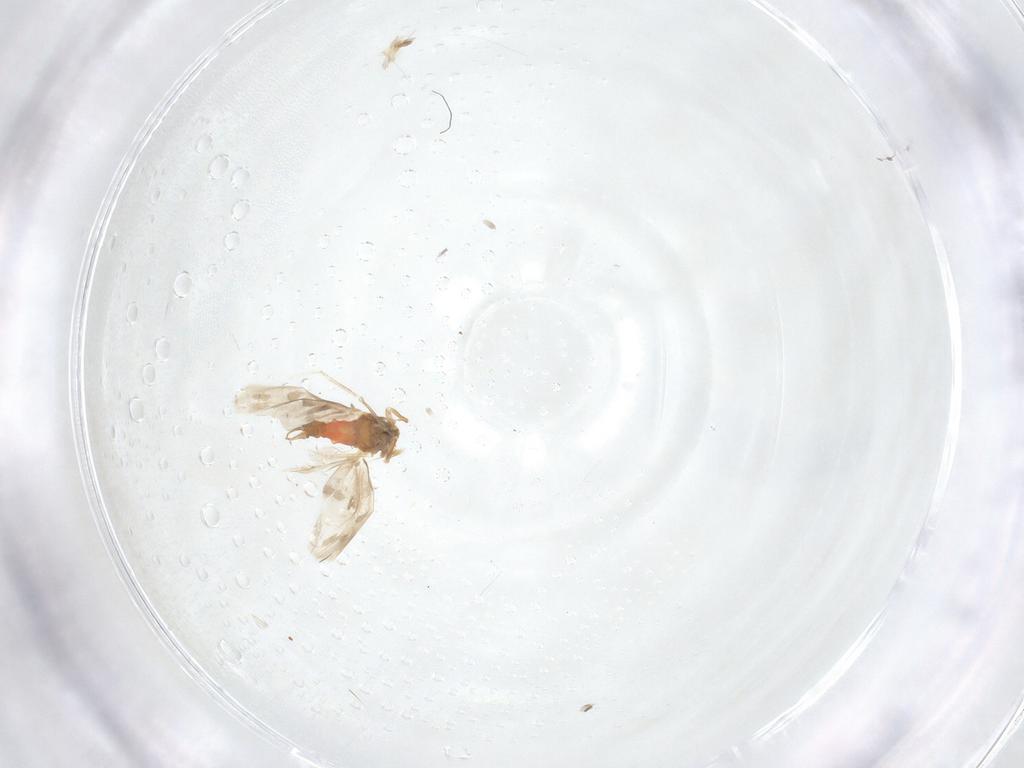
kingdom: Animalia
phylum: Arthropoda
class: Insecta
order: Hemiptera
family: Aleyrodidae
